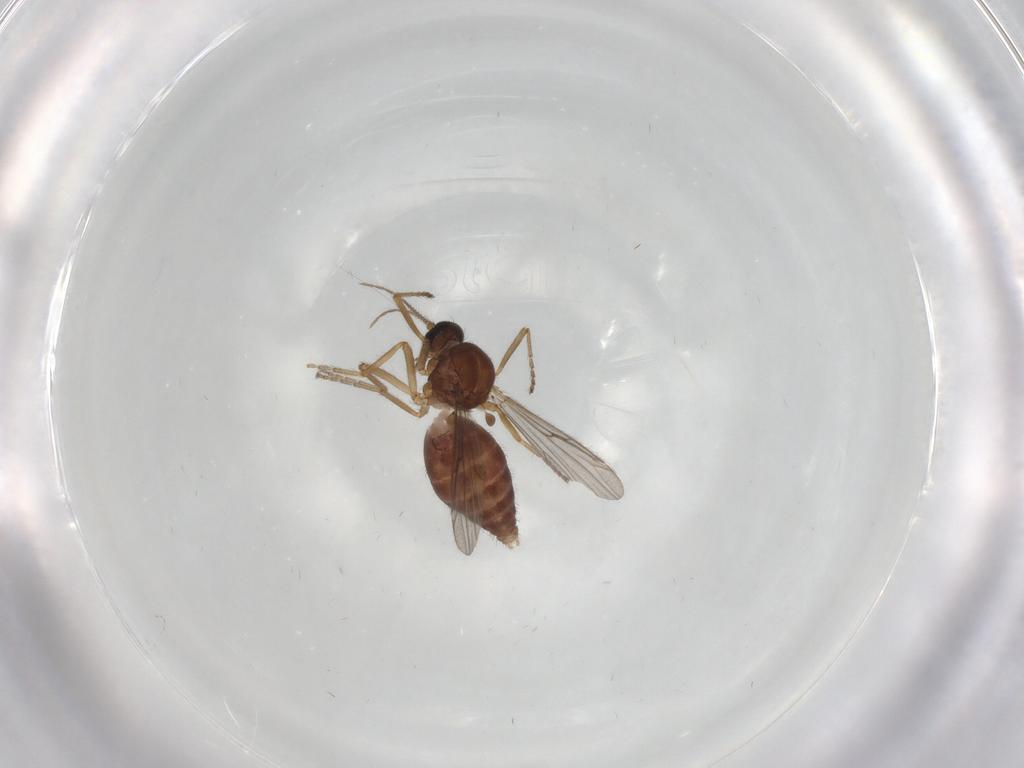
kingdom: Animalia
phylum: Arthropoda
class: Insecta
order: Diptera
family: Ceratopogonidae
